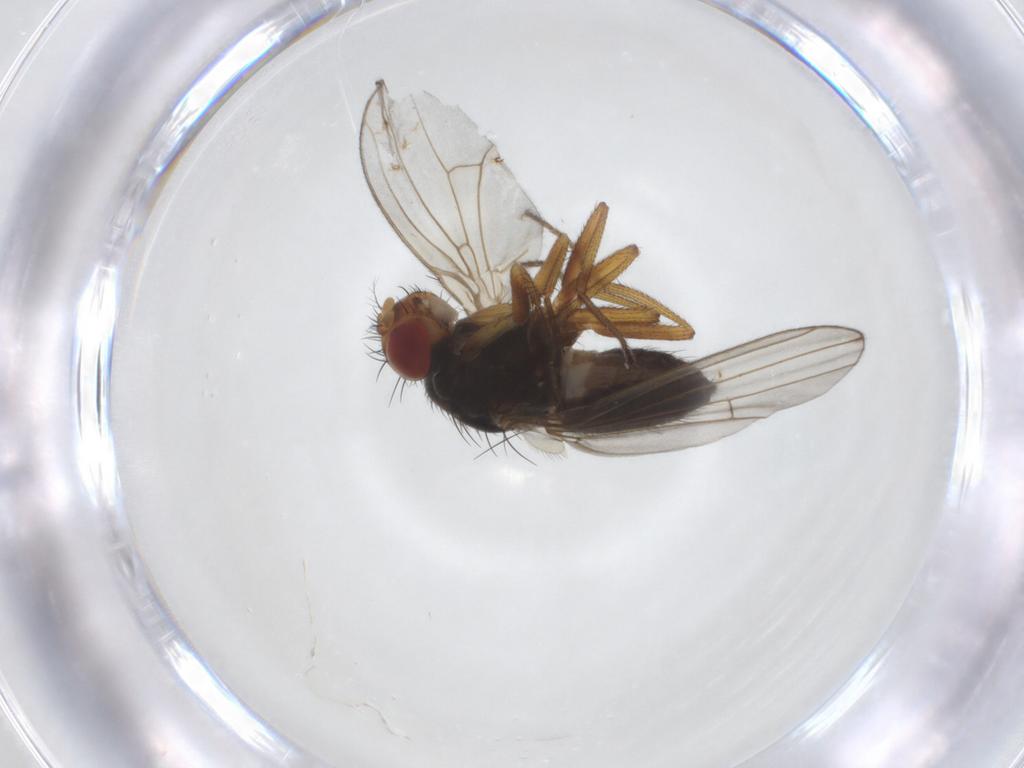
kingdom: Animalia
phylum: Arthropoda
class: Insecta
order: Diptera
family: Drosophilidae
